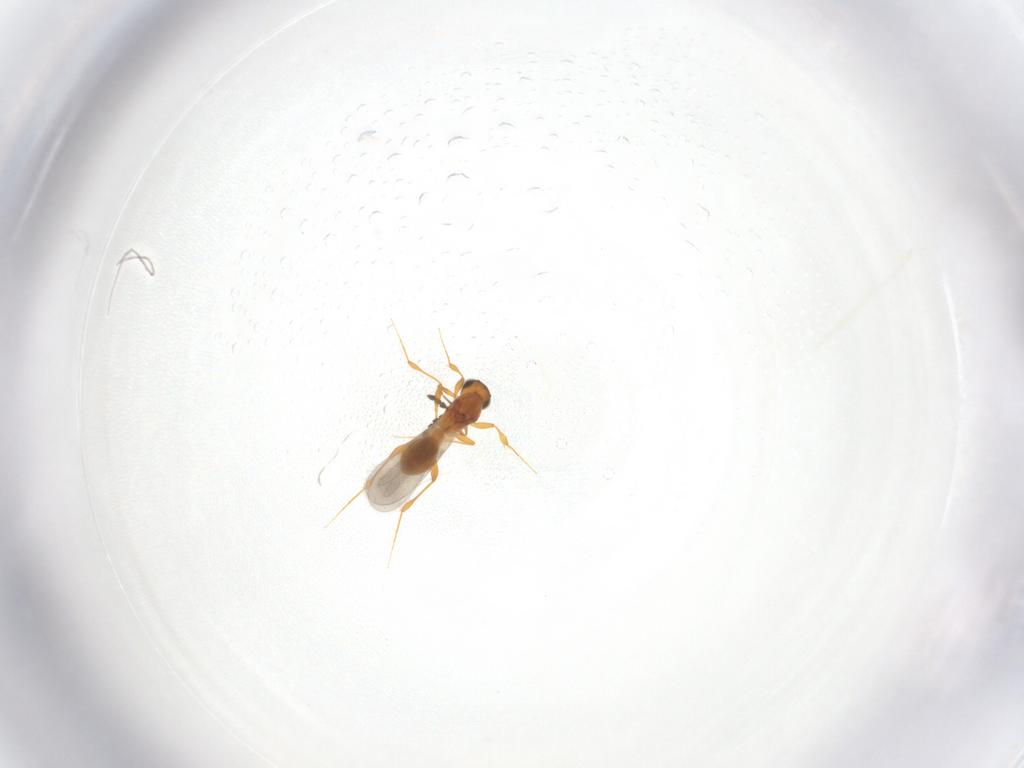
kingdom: Animalia
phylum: Arthropoda
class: Insecta
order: Hymenoptera
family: Platygastridae
